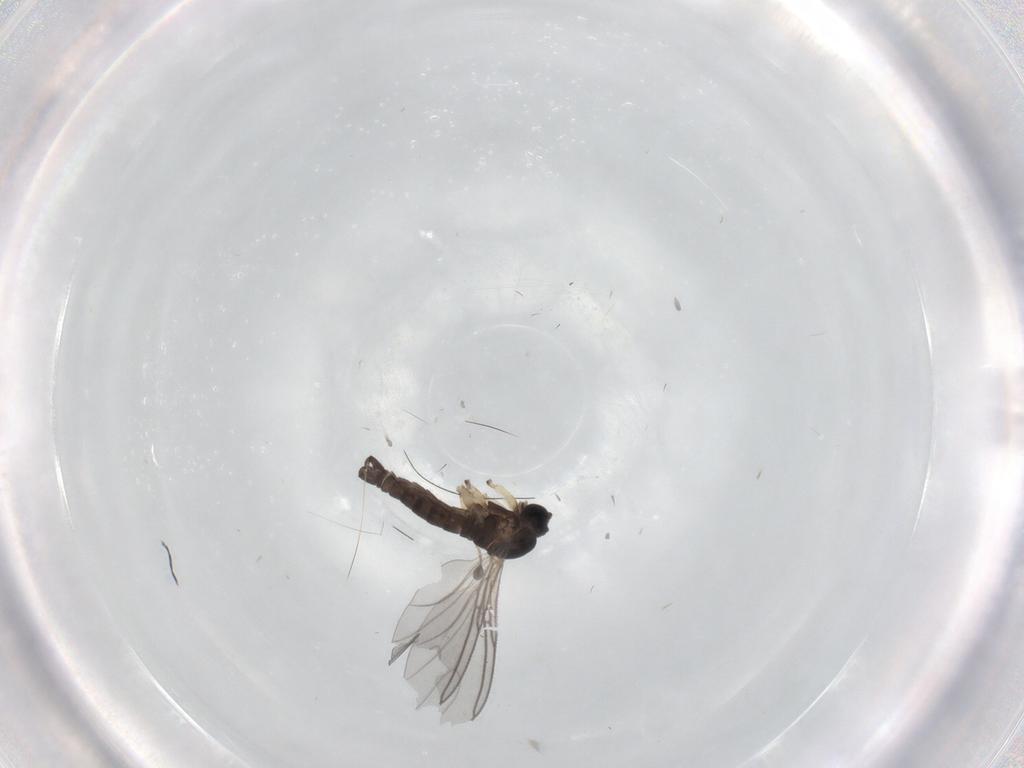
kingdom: Animalia
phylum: Arthropoda
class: Insecta
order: Diptera
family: Sciaridae
